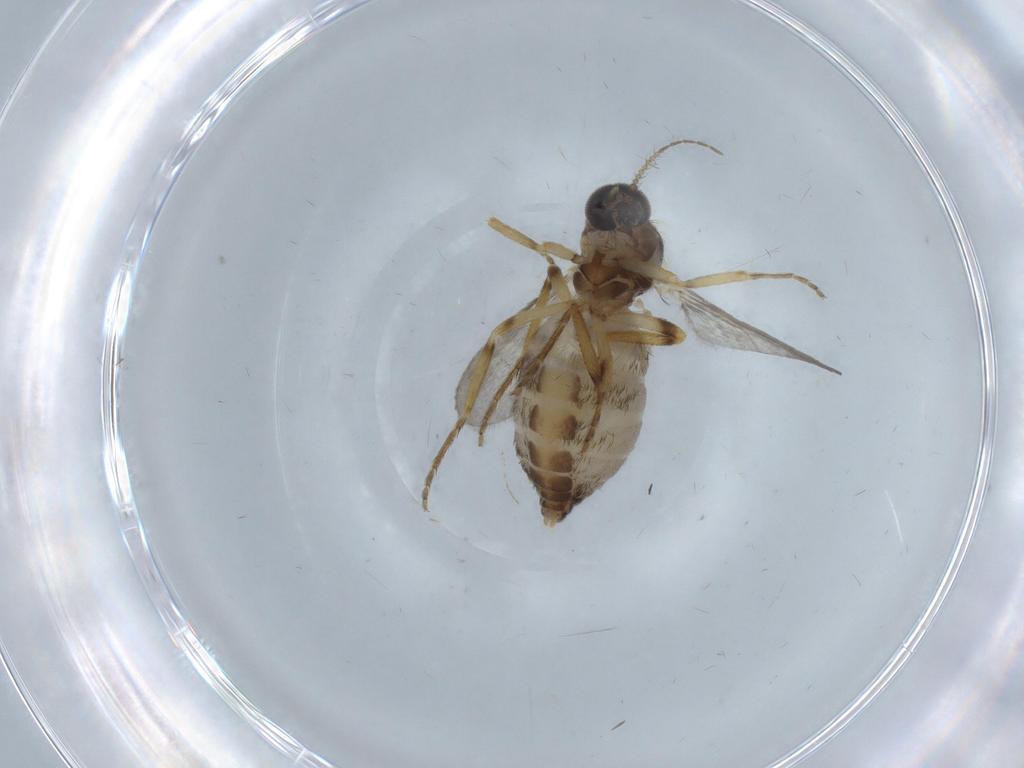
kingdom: Animalia
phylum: Arthropoda
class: Insecta
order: Diptera
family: Ceratopogonidae
